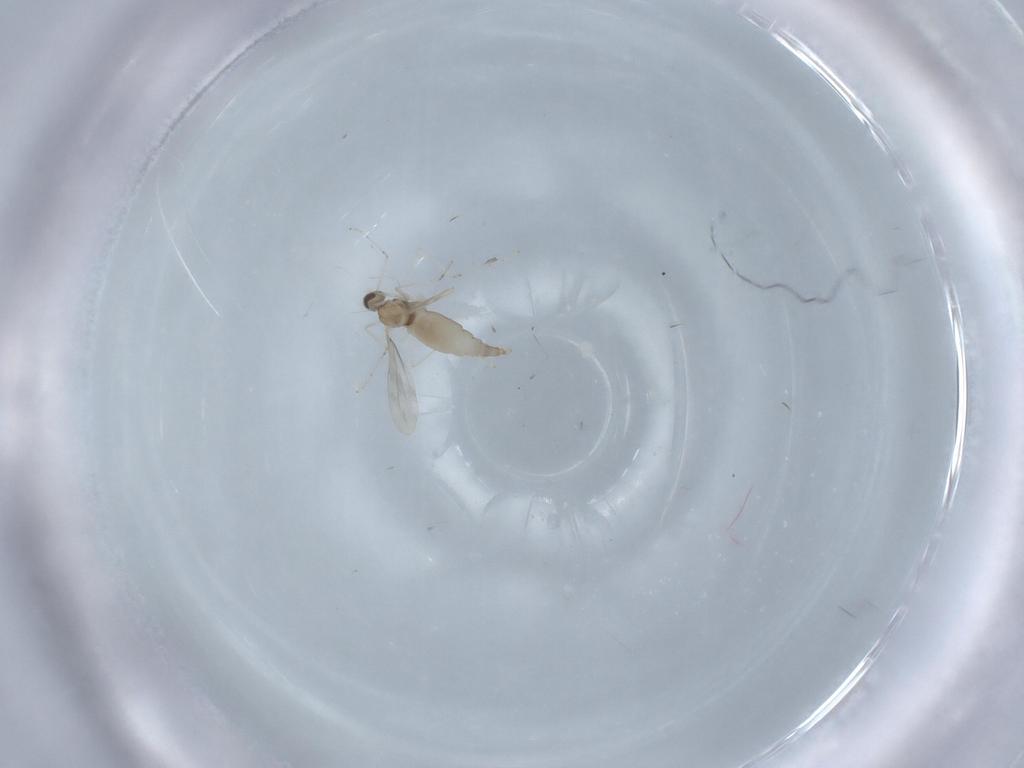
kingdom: Animalia
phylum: Arthropoda
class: Insecta
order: Diptera
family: Cecidomyiidae
